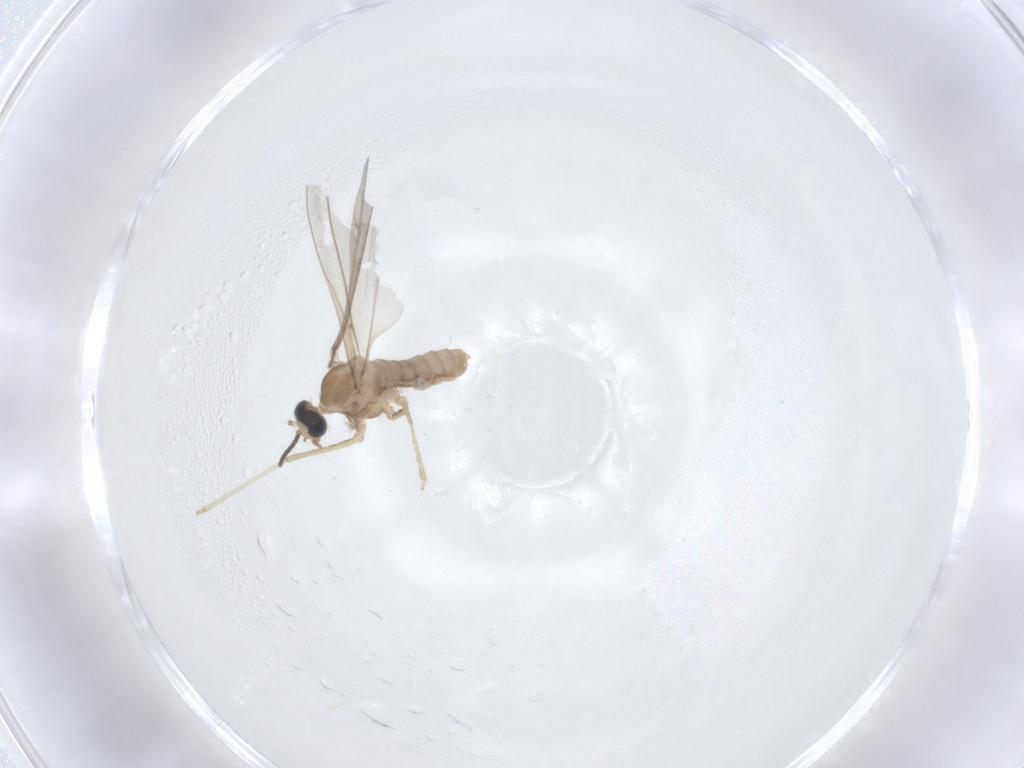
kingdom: Animalia
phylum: Arthropoda
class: Insecta
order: Diptera
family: Cecidomyiidae
